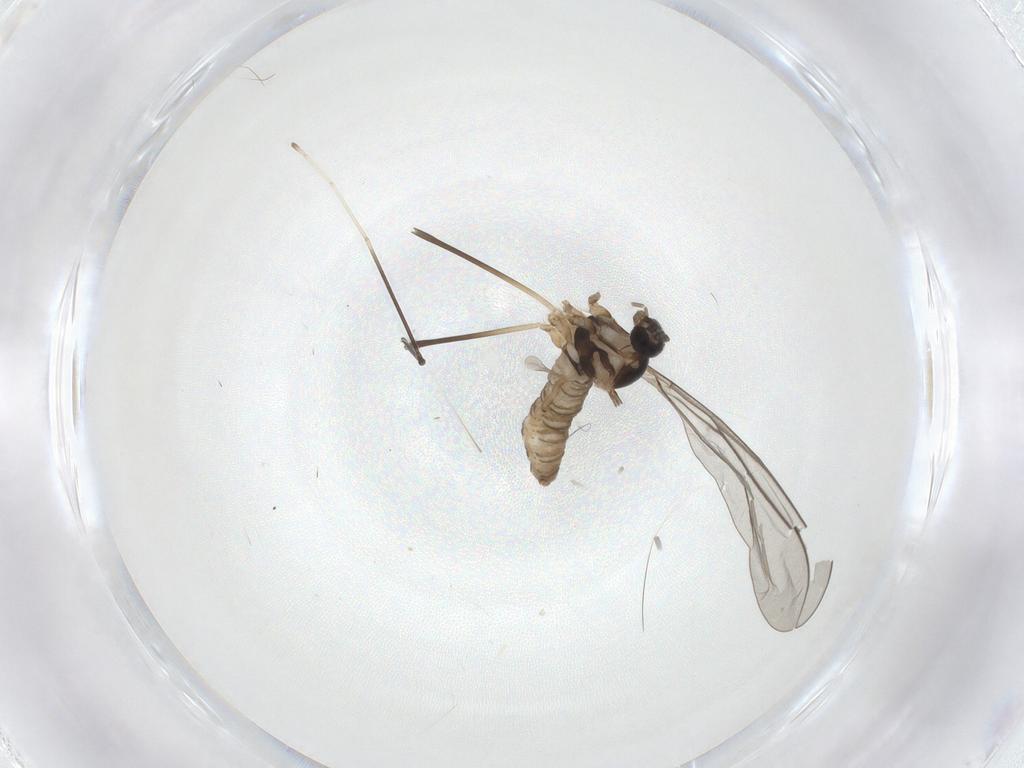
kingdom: Animalia
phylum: Arthropoda
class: Insecta
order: Diptera
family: Cecidomyiidae
